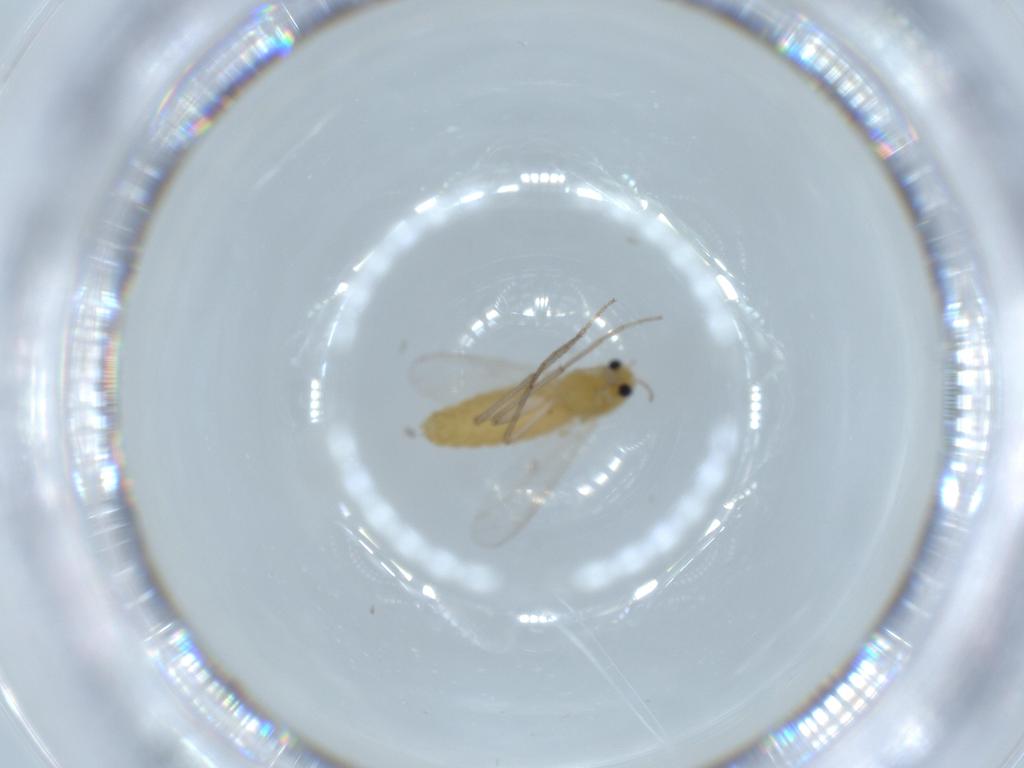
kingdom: Animalia
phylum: Arthropoda
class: Insecta
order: Diptera
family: Chironomidae
